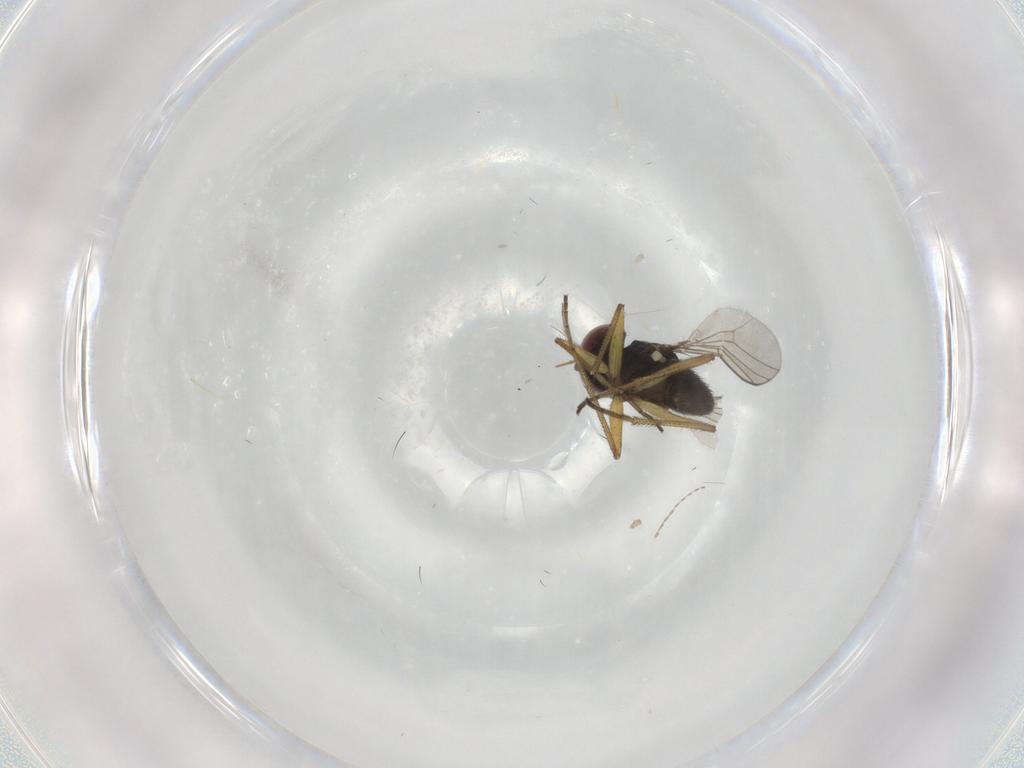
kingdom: Animalia
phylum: Arthropoda
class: Insecta
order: Diptera
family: Dolichopodidae
